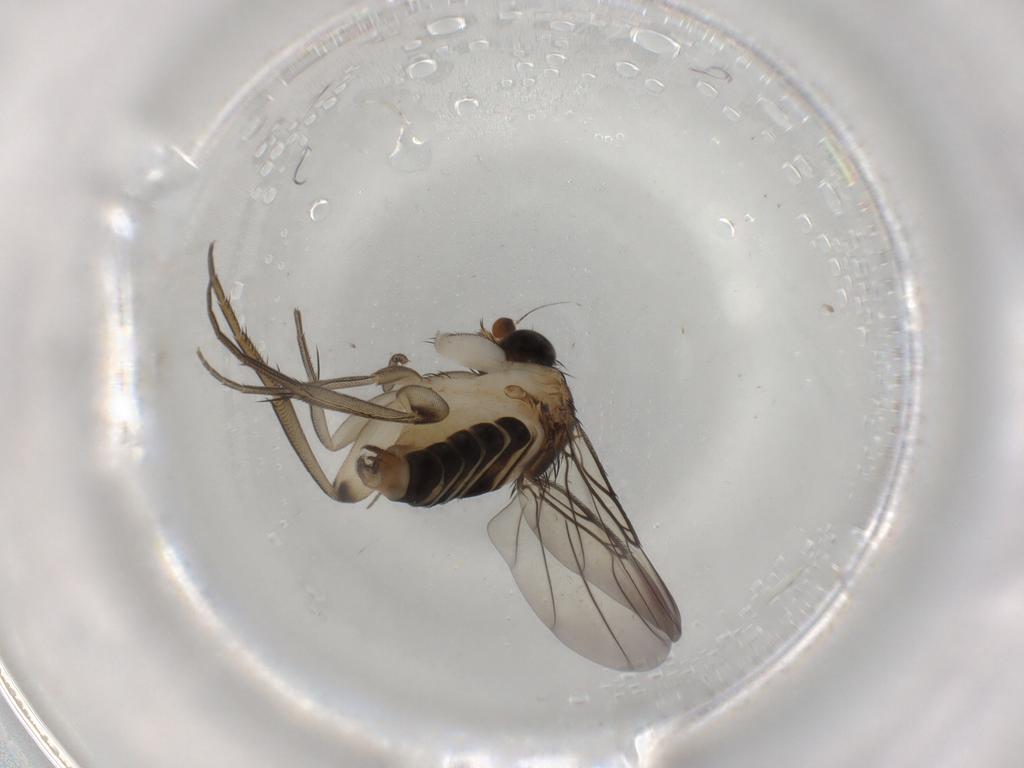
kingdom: Animalia
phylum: Arthropoda
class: Insecta
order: Diptera
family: Phoridae
